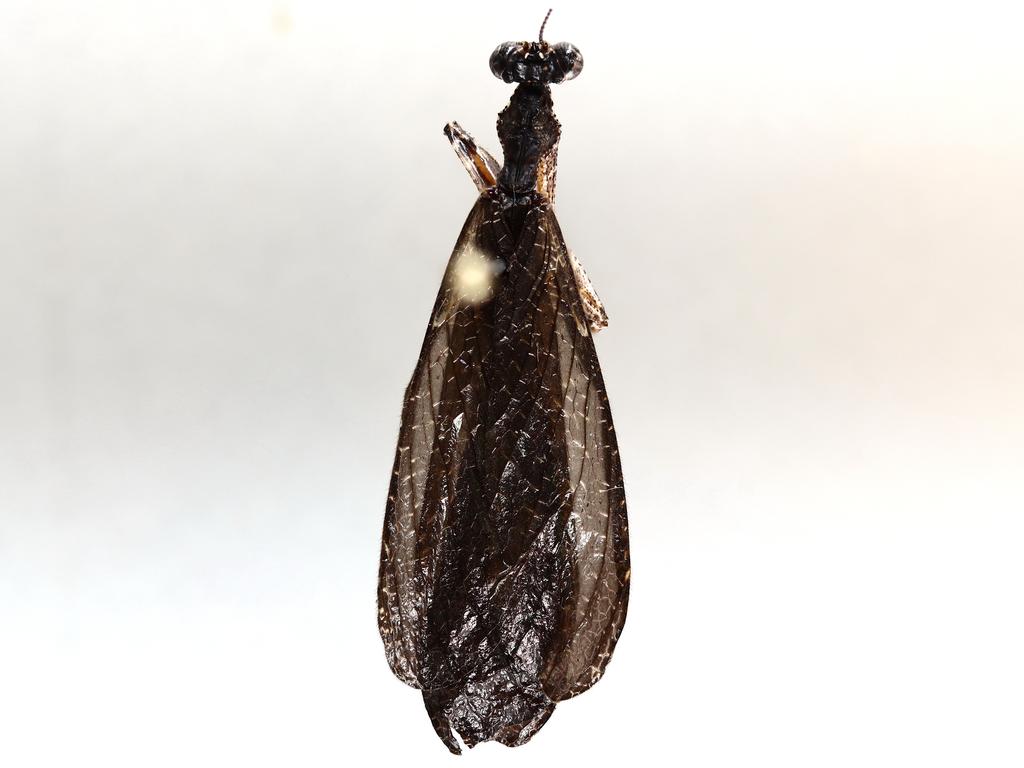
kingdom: Animalia
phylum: Arthropoda
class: Insecta
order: Diptera
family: Phoridae
